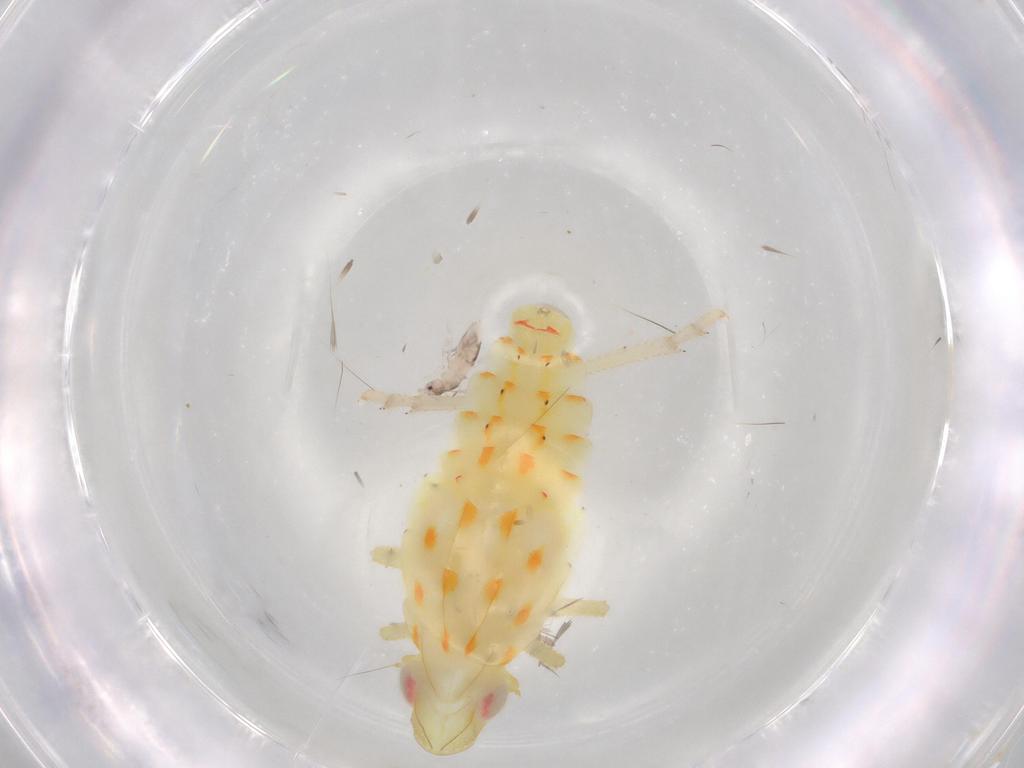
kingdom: Animalia
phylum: Arthropoda
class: Insecta
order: Hemiptera
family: Tropiduchidae
